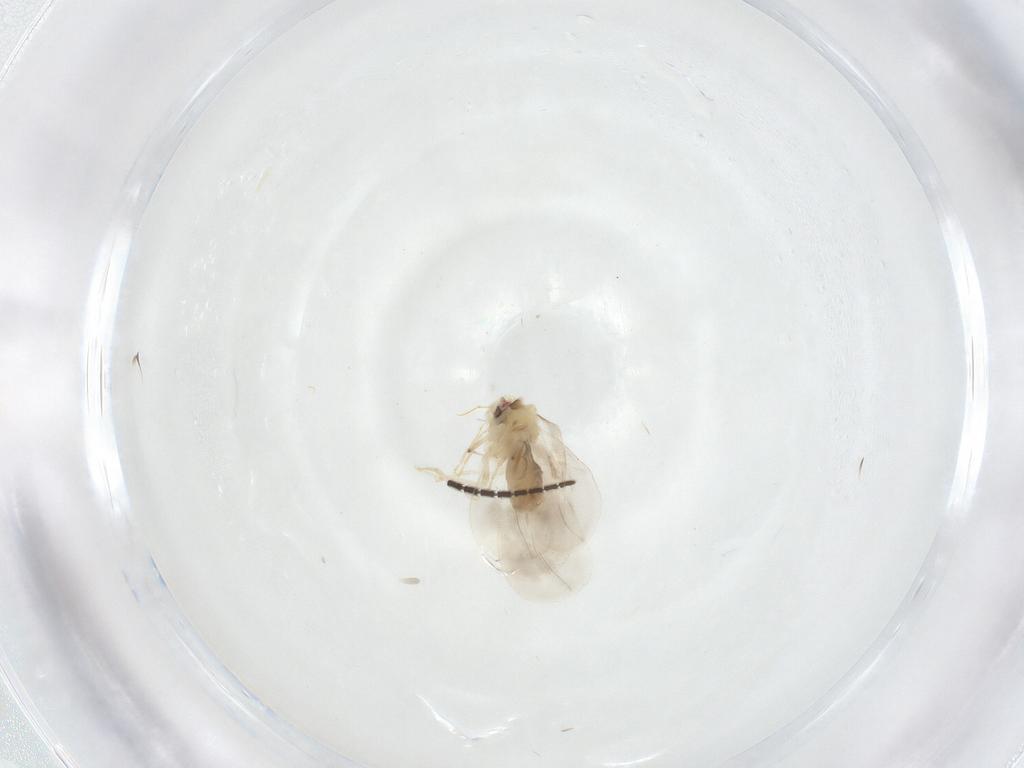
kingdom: Animalia
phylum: Arthropoda
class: Insecta
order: Hemiptera
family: Aleyrodidae
